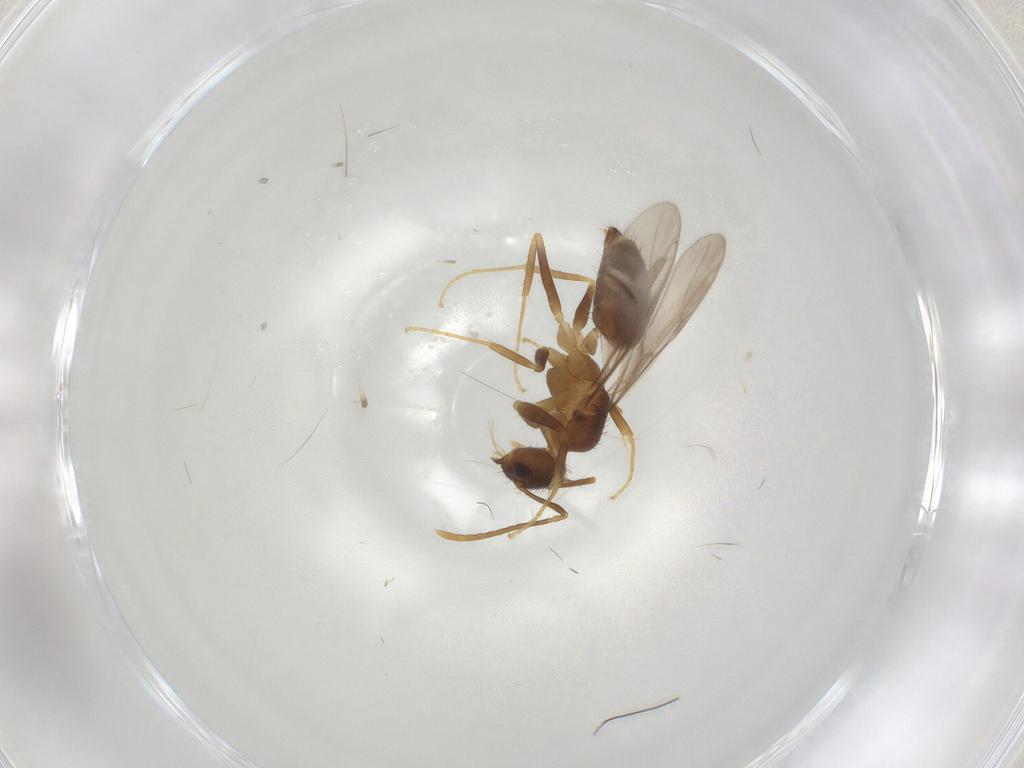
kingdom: Animalia
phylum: Arthropoda
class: Insecta
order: Hymenoptera
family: Formicidae
